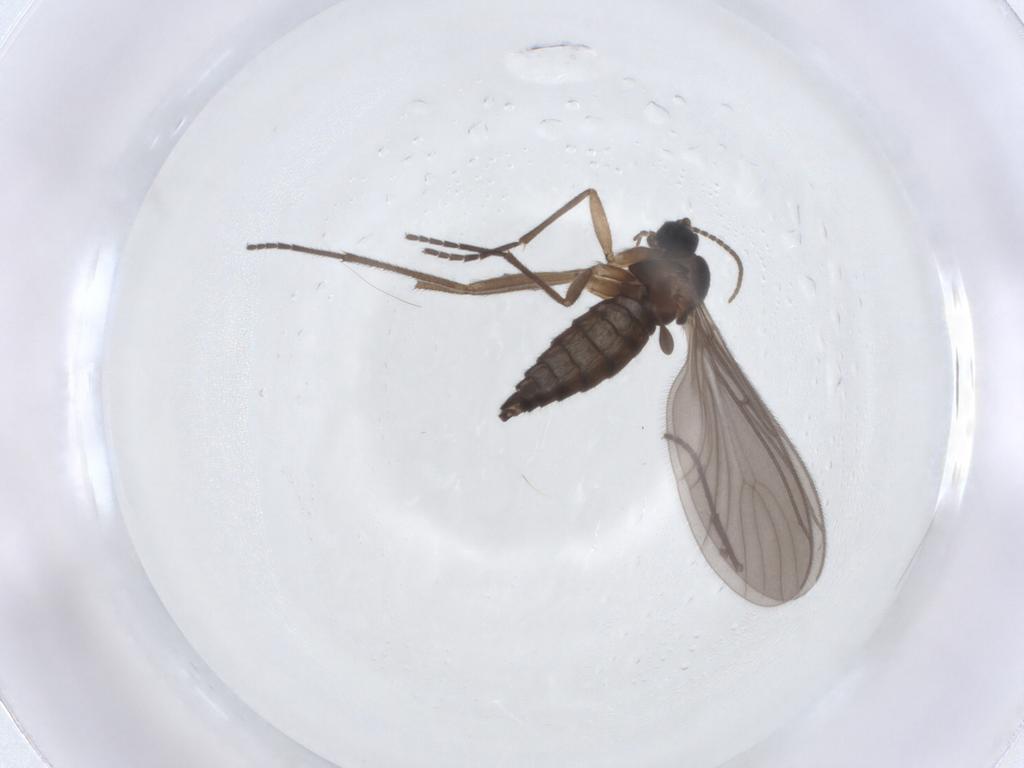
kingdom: Animalia
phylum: Arthropoda
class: Insecta
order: Diptera
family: Sciaridae
